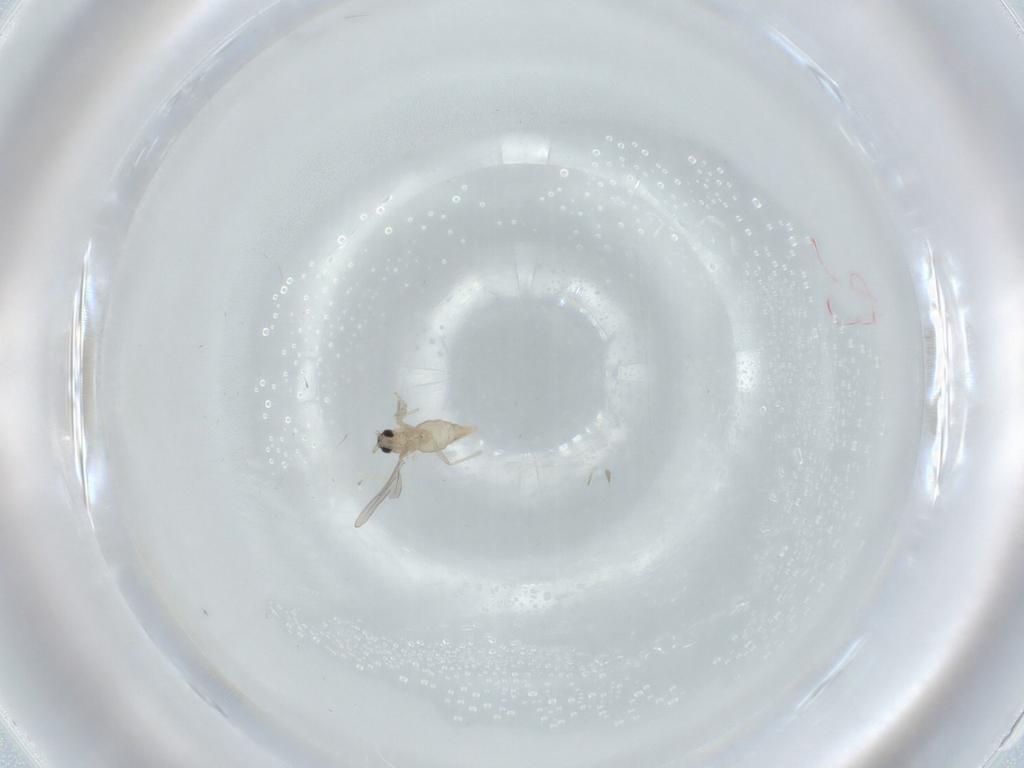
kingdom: Animalia
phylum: Arthropoda
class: Insecta
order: Diptera
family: Cecidomyiidae
